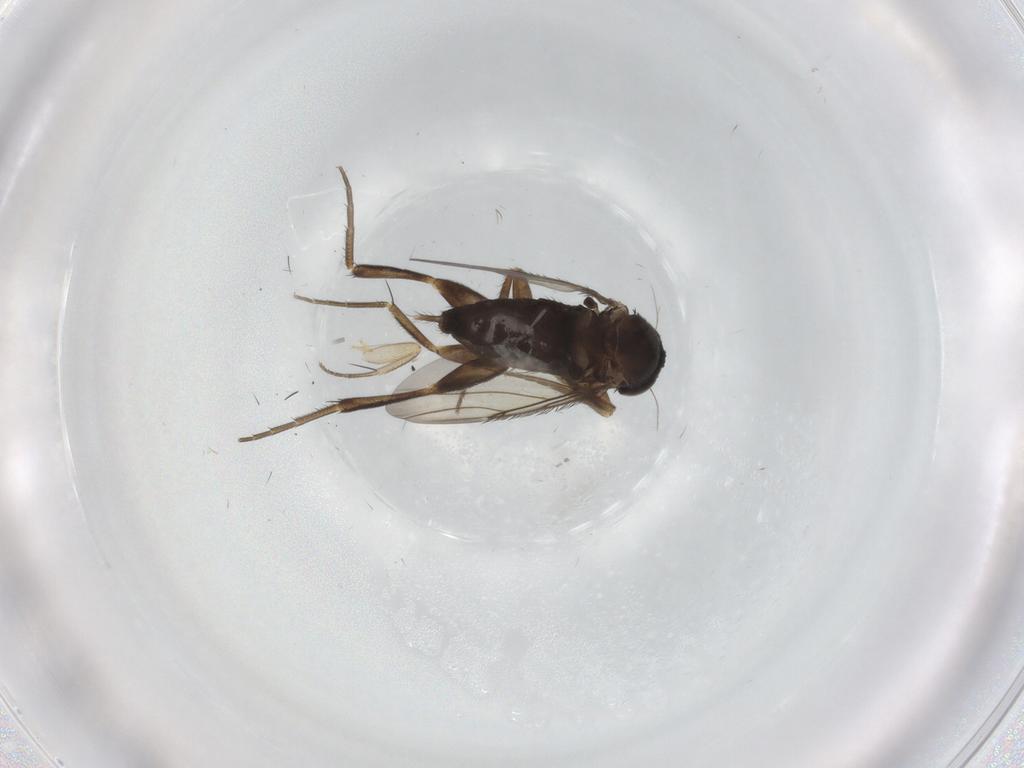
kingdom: Animalia
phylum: Arthropoda
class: Insecta
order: Diptera
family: Phoridae
